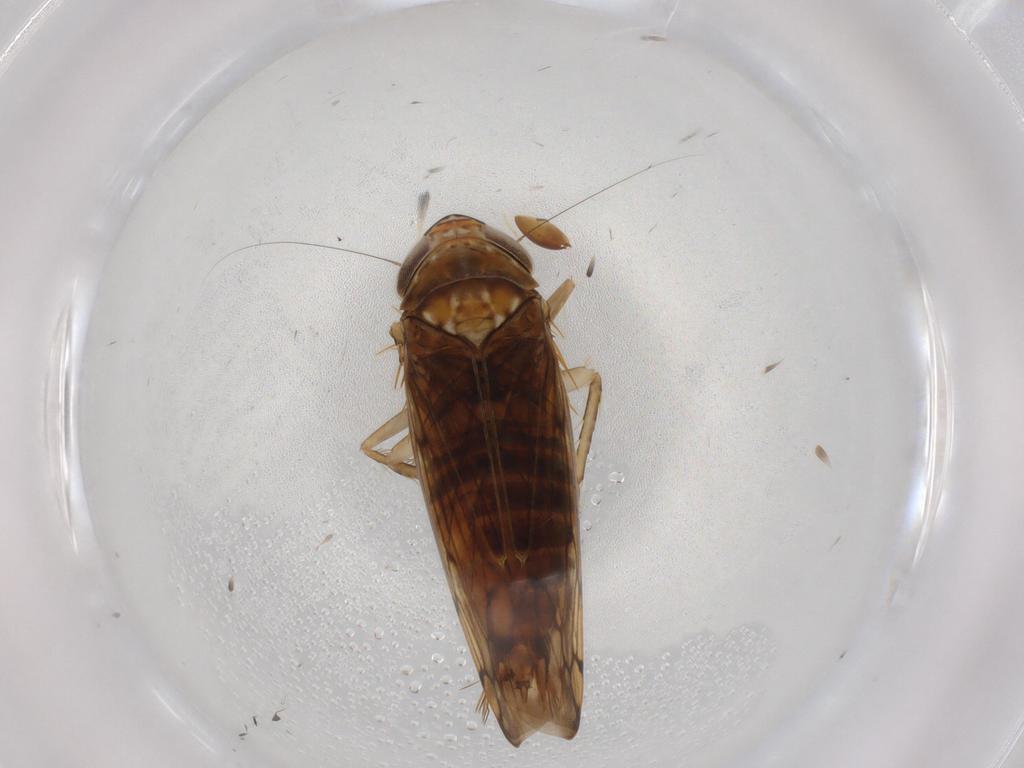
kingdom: Animalia
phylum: Arthropoda
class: Insecta
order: Hemiptera
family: Cicadellidae
